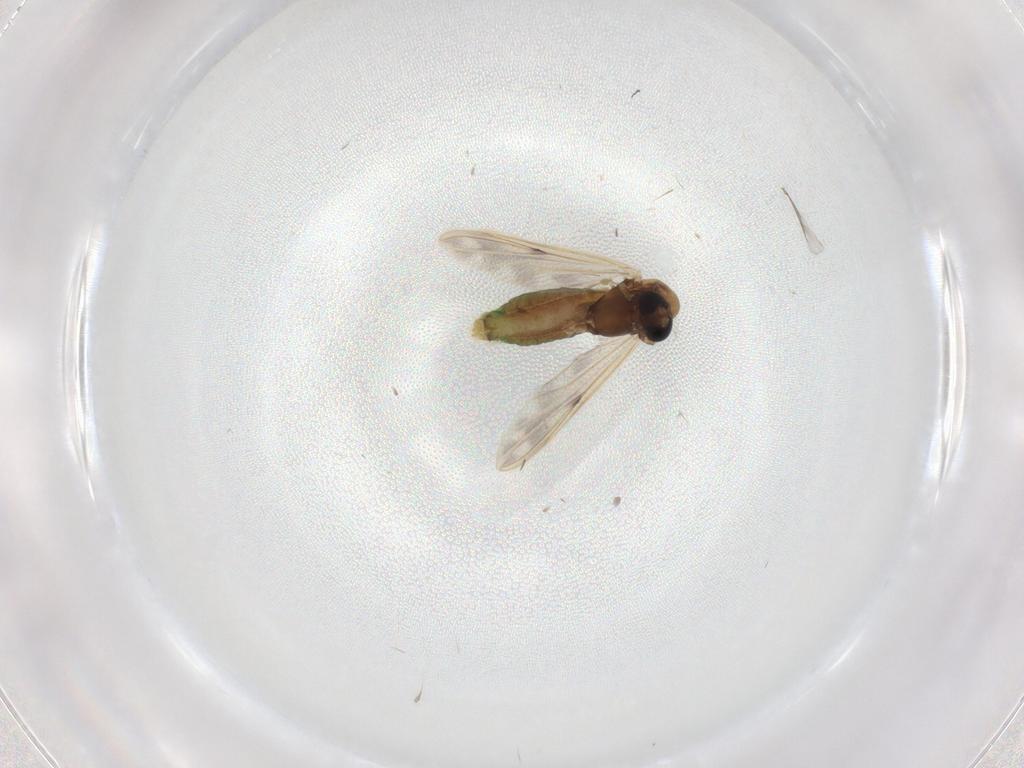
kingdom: Animalia
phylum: Arthropoda
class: Insecta
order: Diptera
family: Chironomidae
